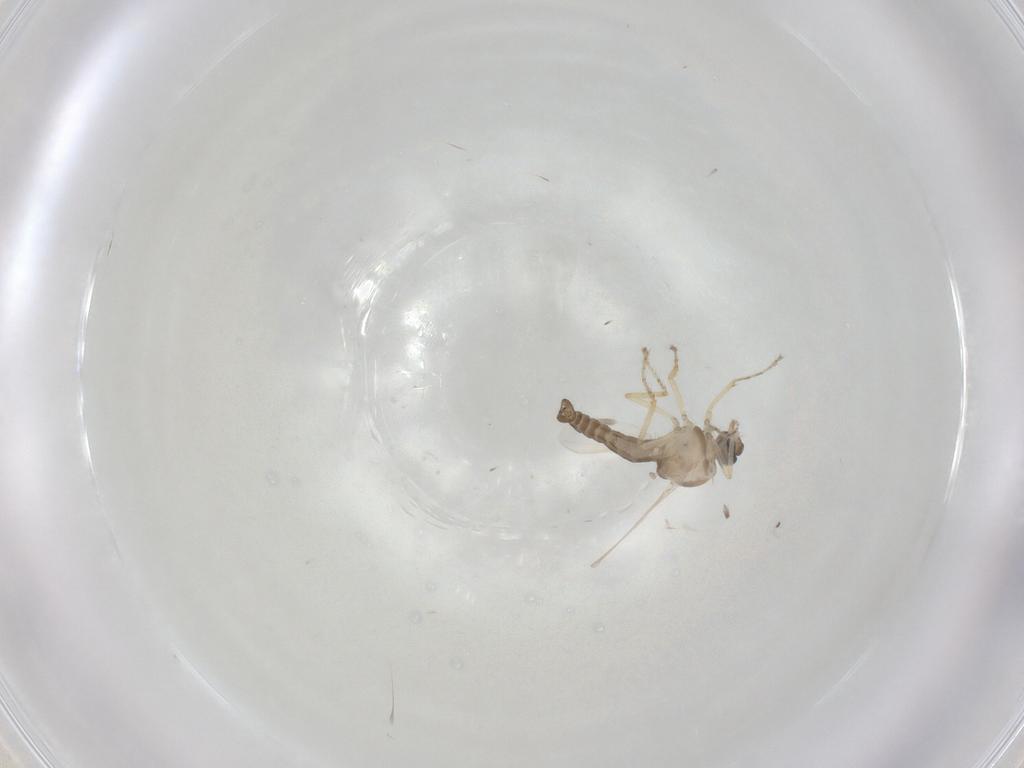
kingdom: Animalia
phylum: Arthropoda
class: Insecta
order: Diptera
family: Ceratopogonidae
